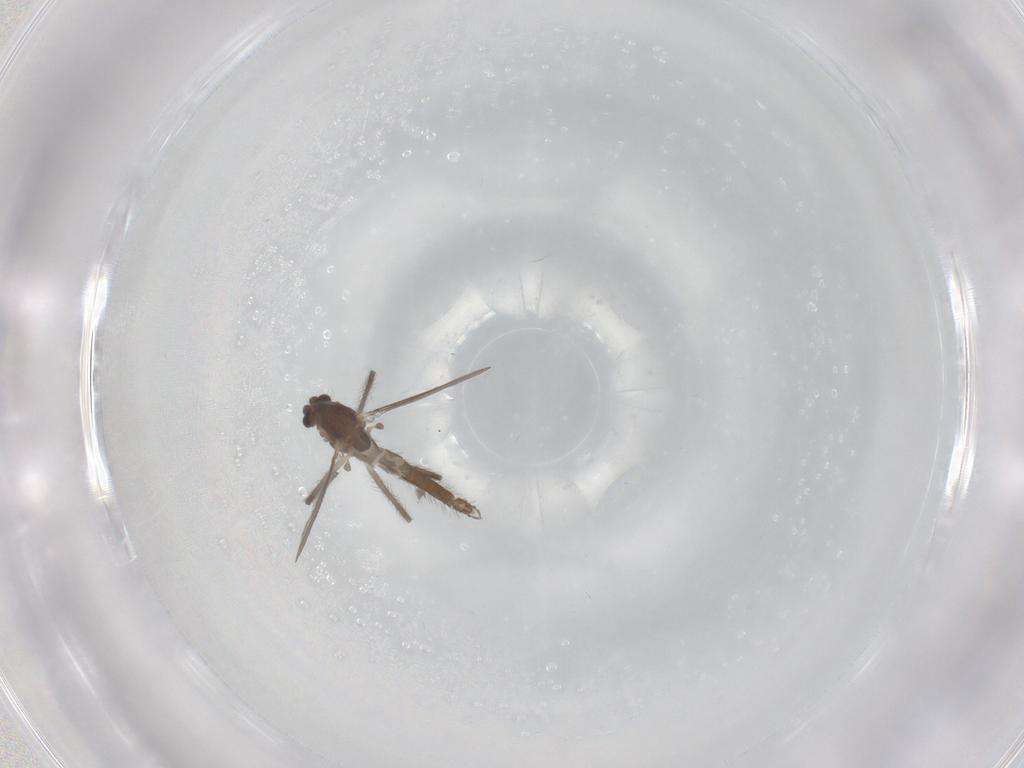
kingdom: Animalia
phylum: Arthropoda
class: Insecta
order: Diptera
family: Chironomidae
